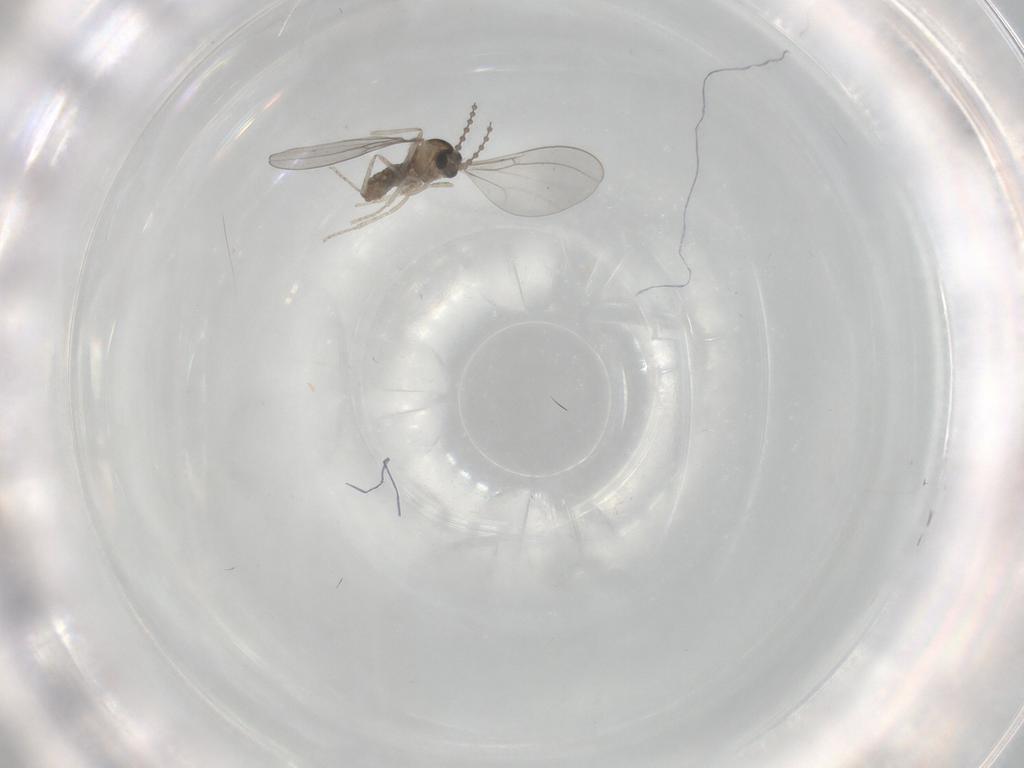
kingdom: Animalia
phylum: Arthropoda
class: Insecta
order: Diptera
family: Cecidomyiidae
